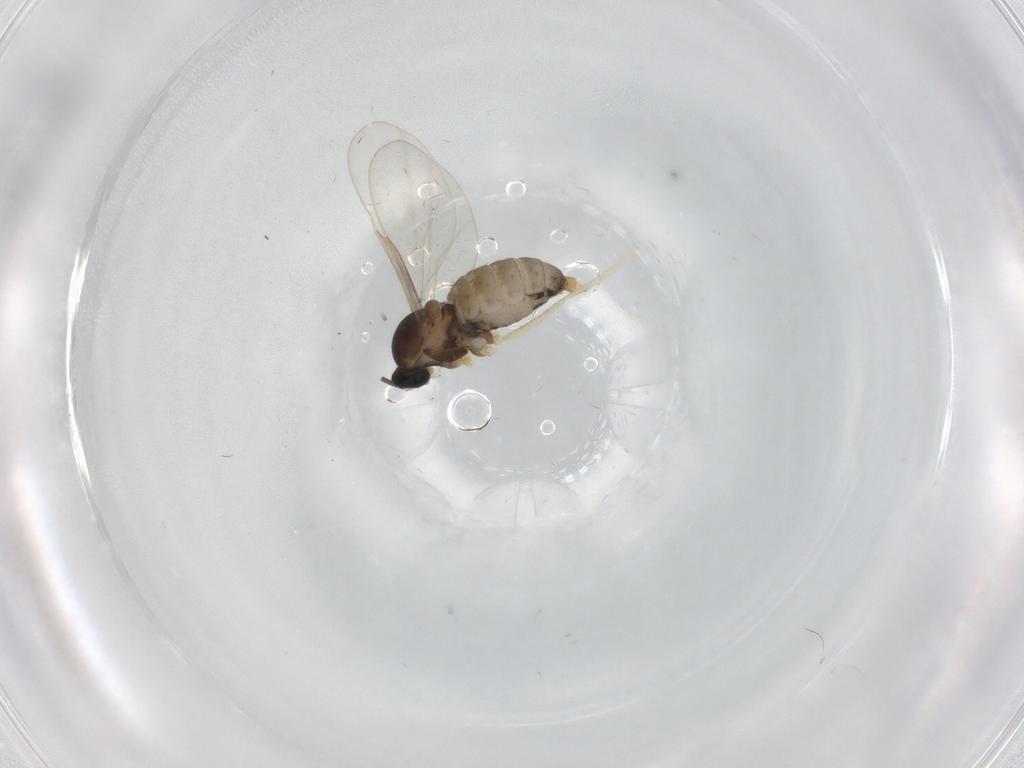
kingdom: Animalia
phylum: Arthropoda
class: Insecta
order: Diptera
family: Cecidomyiidae
